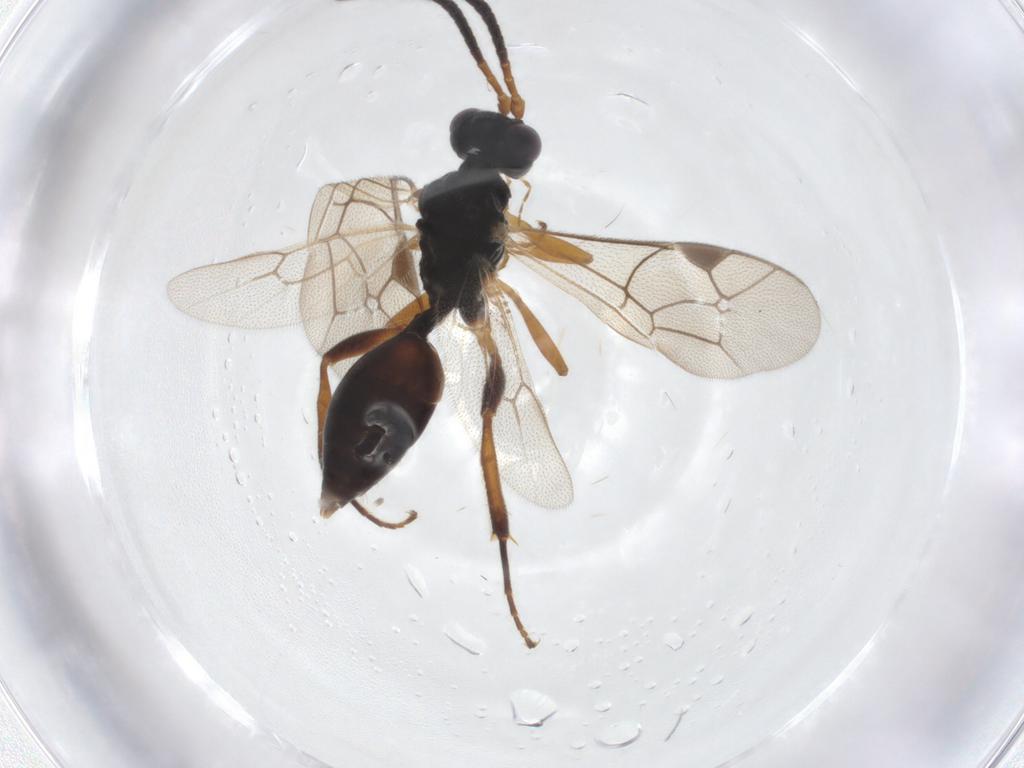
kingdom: Animalia
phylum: Arthropoda
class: Insecta
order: Hymenoptera
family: Ichneumonidae
